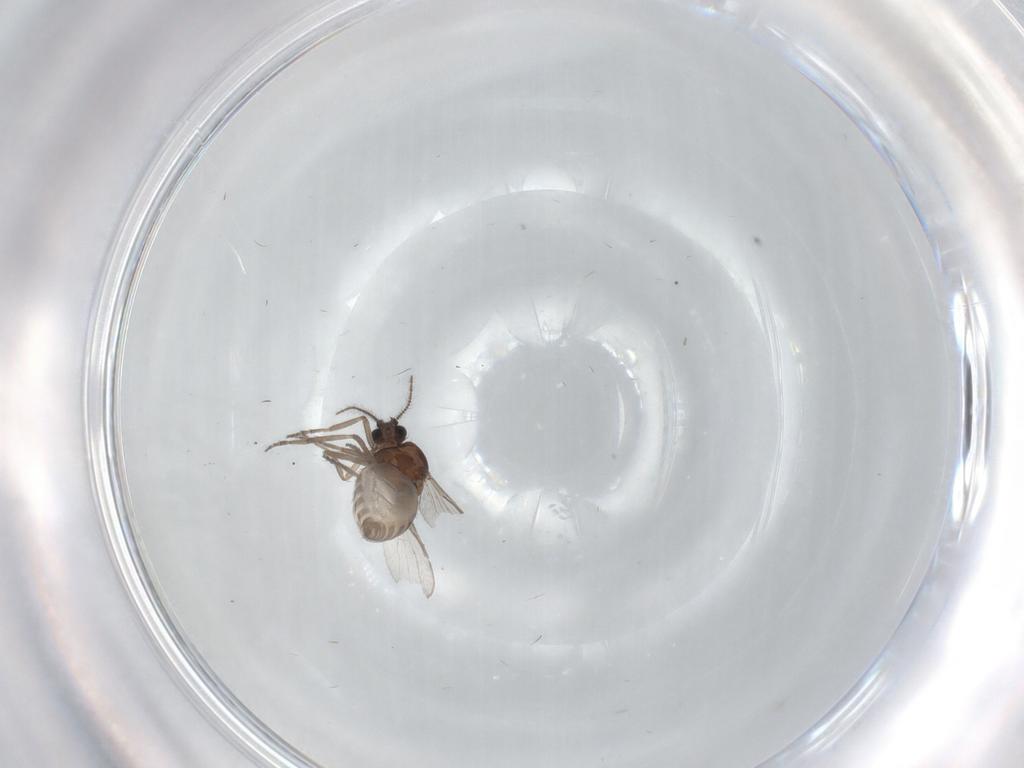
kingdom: Animalia
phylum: Arthropoda
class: Insecta
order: Diptera
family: Ceratopogonidae
